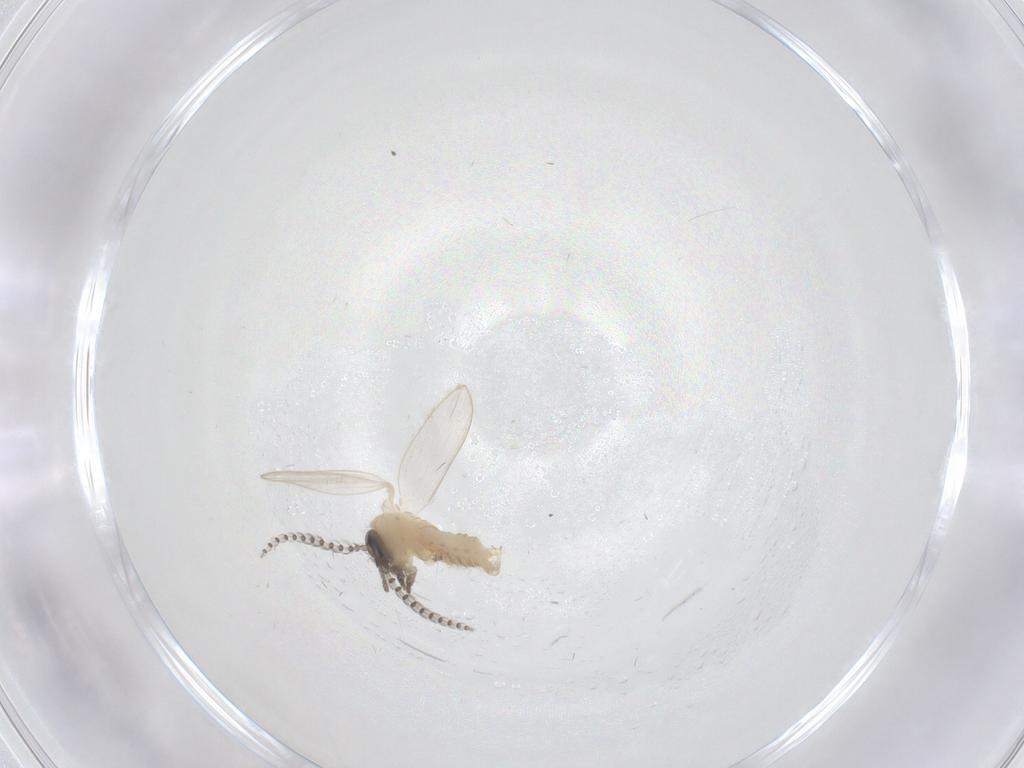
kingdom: Animalia
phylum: Arthropoda
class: Insecta
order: Diptera
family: Psychodidae
